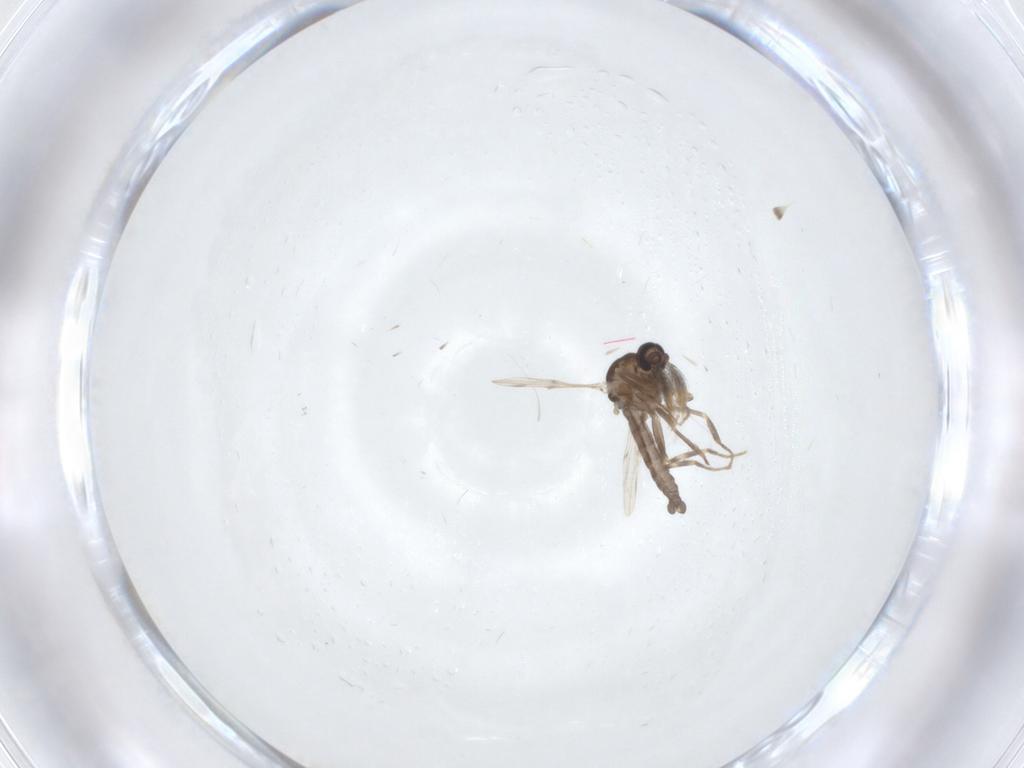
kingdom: Animalia
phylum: Arthropoda
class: Insecta
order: Diptera
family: Ceratopogonidae
